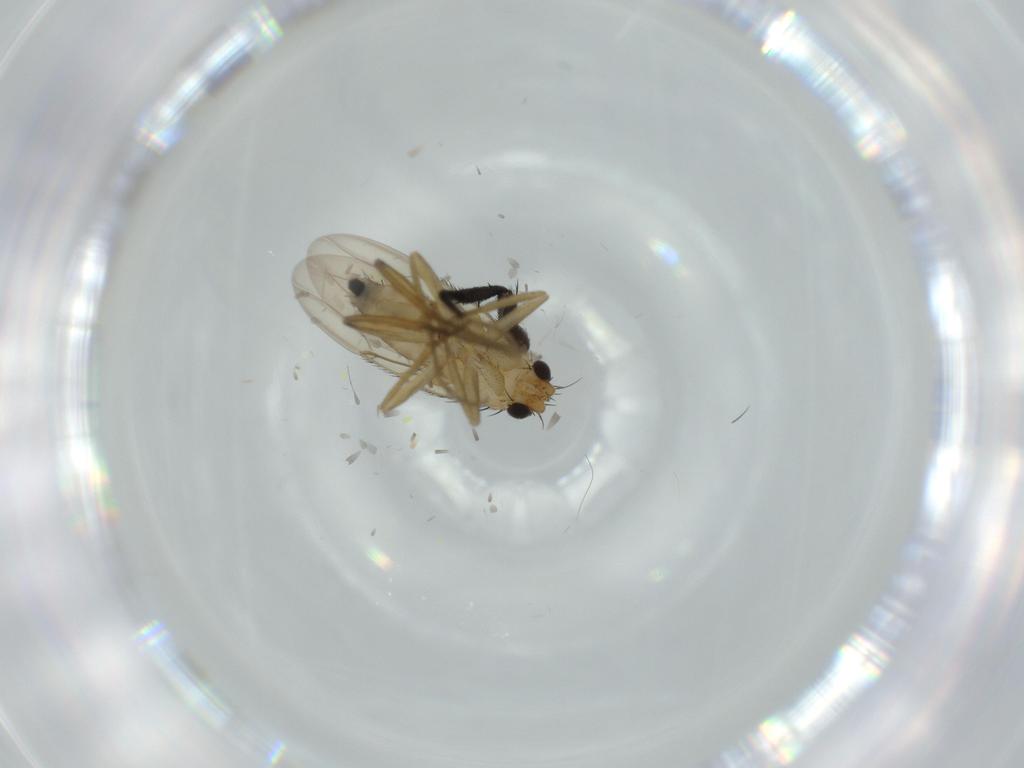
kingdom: Animalia
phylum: Arthropoda
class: Insecta
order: Diptera
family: Phoridae
